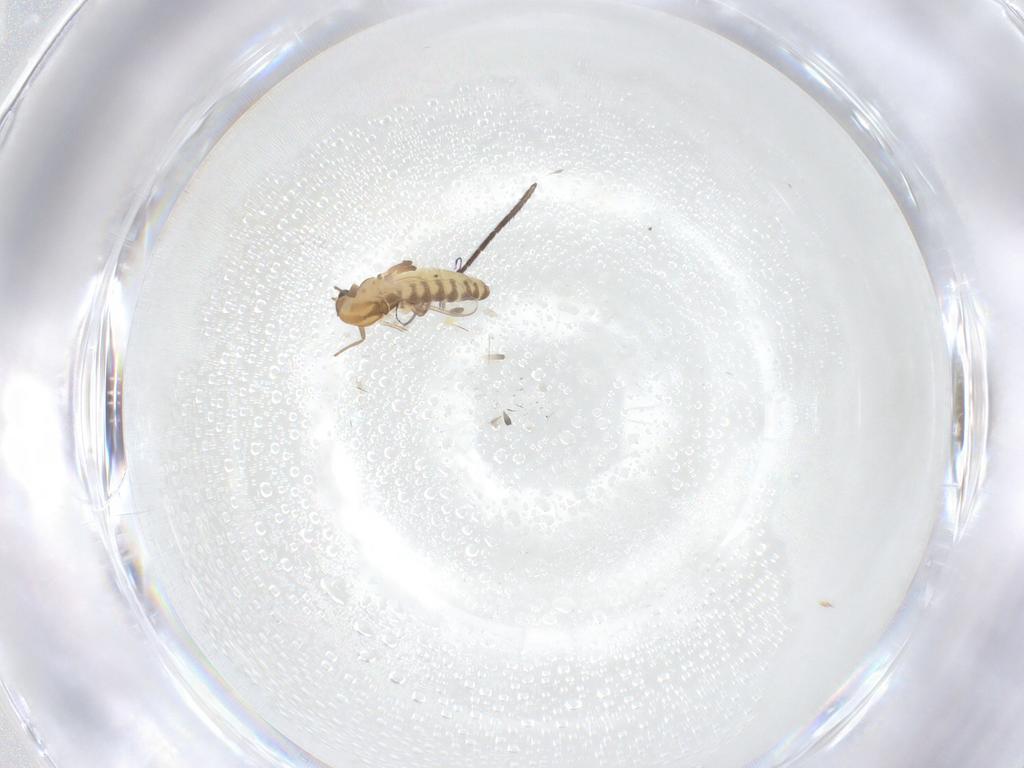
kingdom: Animalia
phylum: Arthropoda
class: Insecta
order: Diptera
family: Chironomidae
